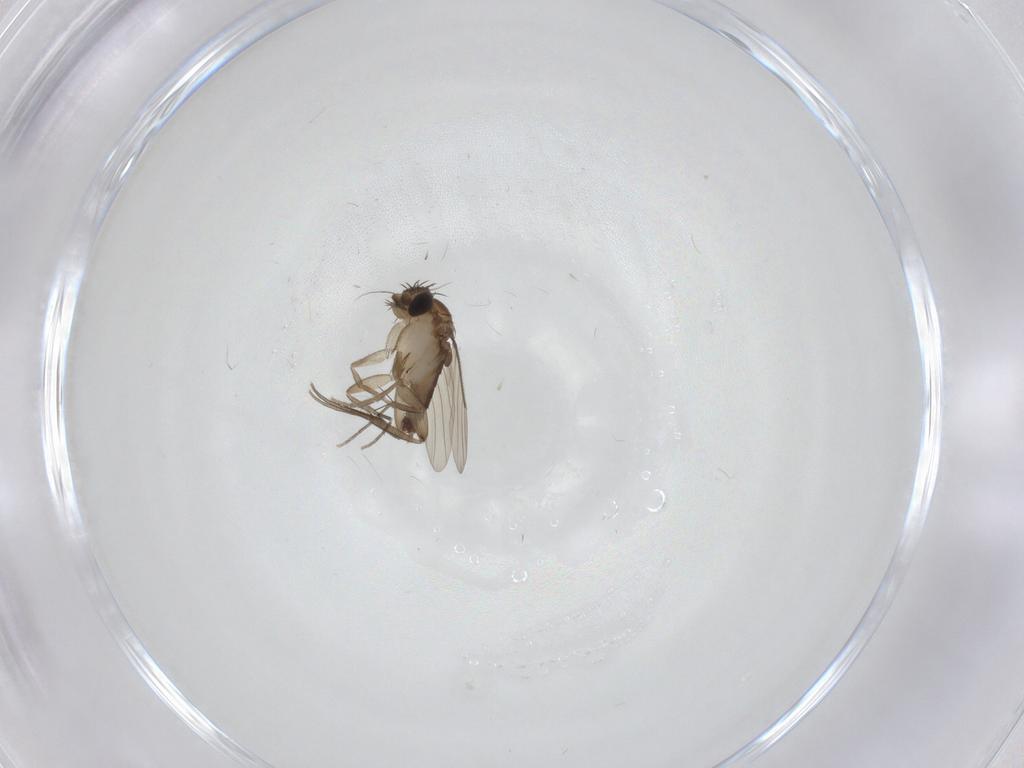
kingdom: Animalia
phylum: Arthropoda
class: Insecta
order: Diptera
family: Phoridae
